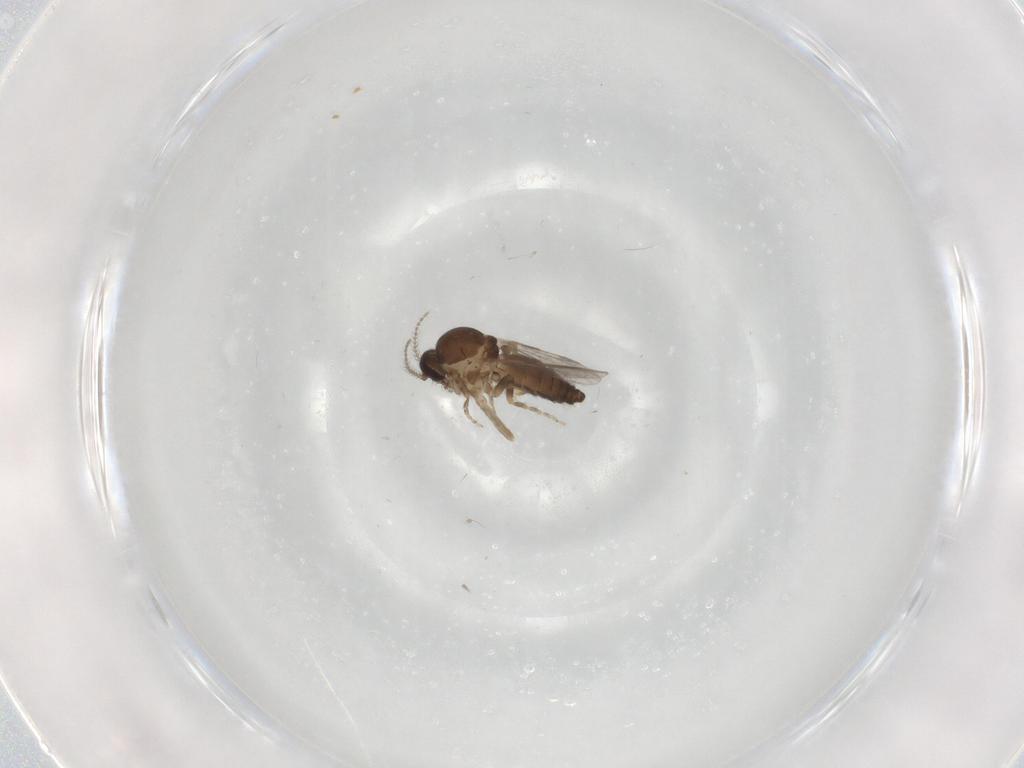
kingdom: Animalia
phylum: Arthropoda
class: Insecta
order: Diptera
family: Ceratopogonidae
